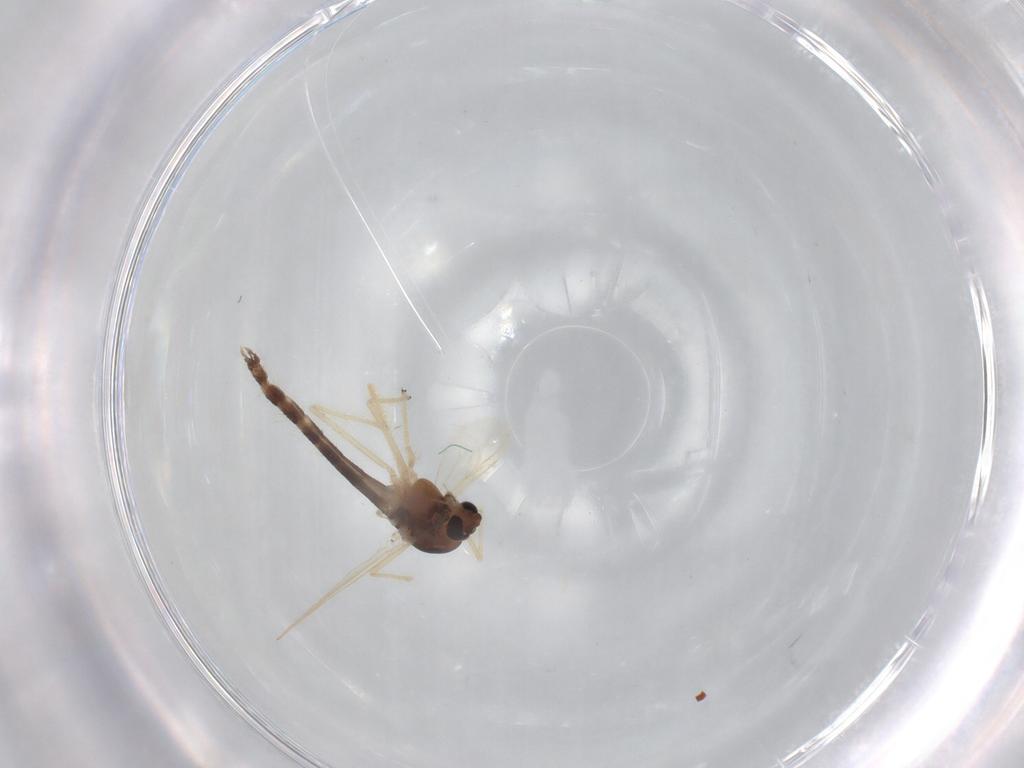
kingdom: Animalia
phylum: Arthropoda
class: Insecta
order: Diptera
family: Chironomidae
